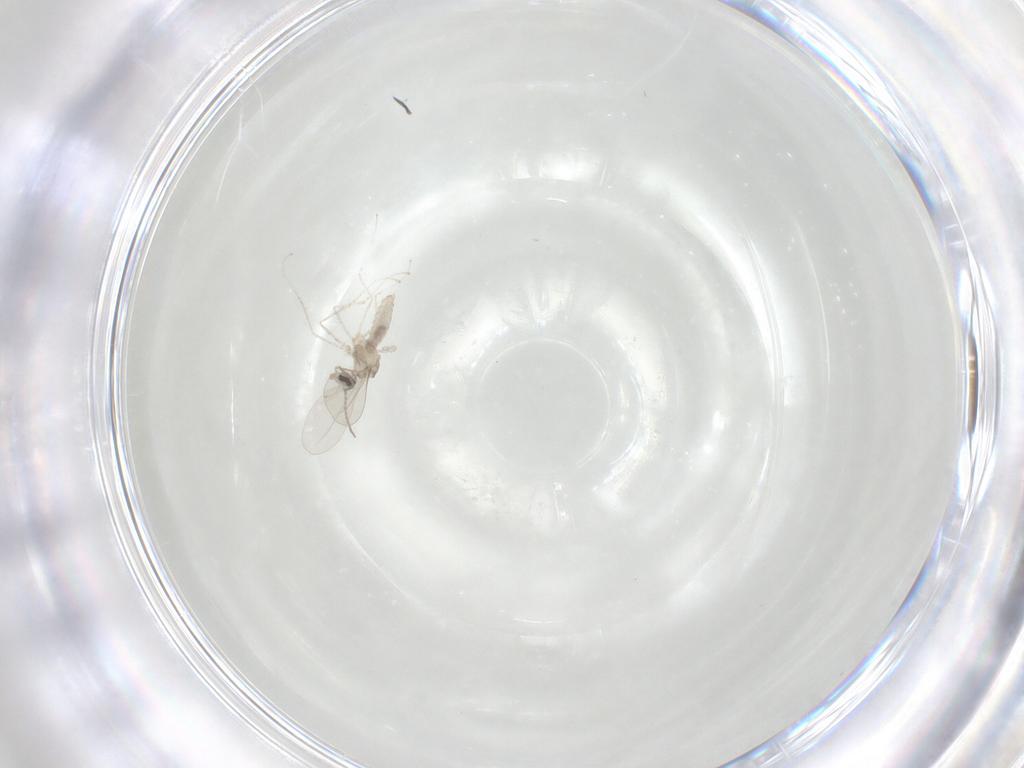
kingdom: Animalia
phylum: Arthropoda
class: Insecta
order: Diptera
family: Cecidomyiidae
